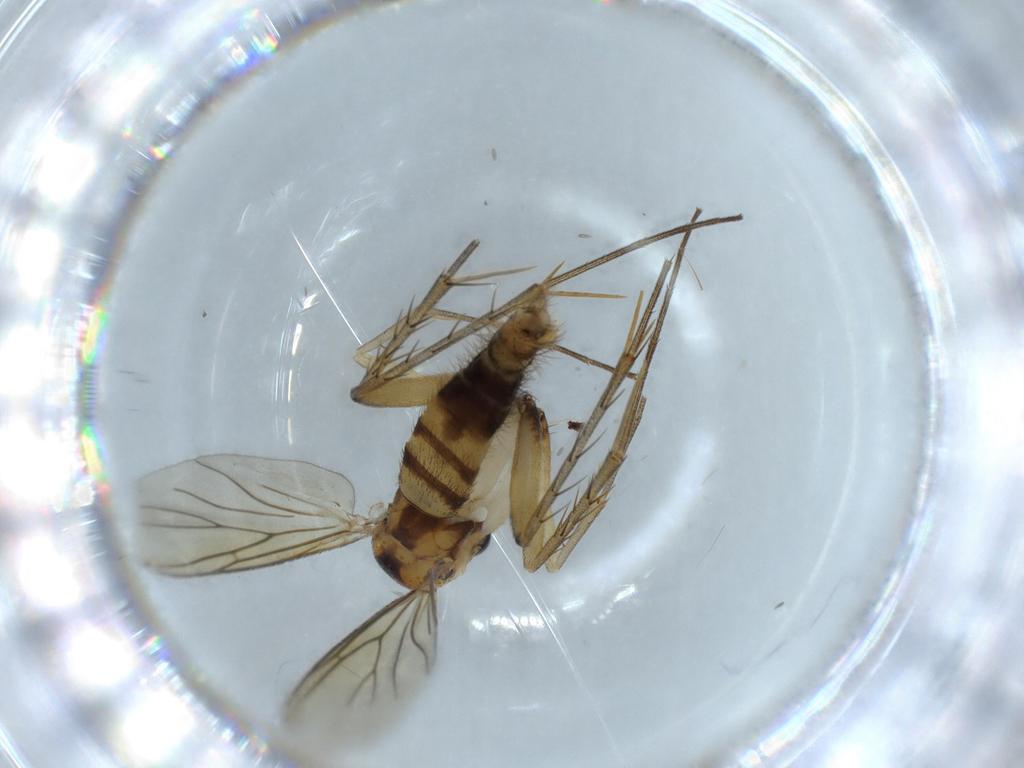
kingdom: Animalia
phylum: Arthropoda
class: Insecta
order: Diptera
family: Mycetophilidae
